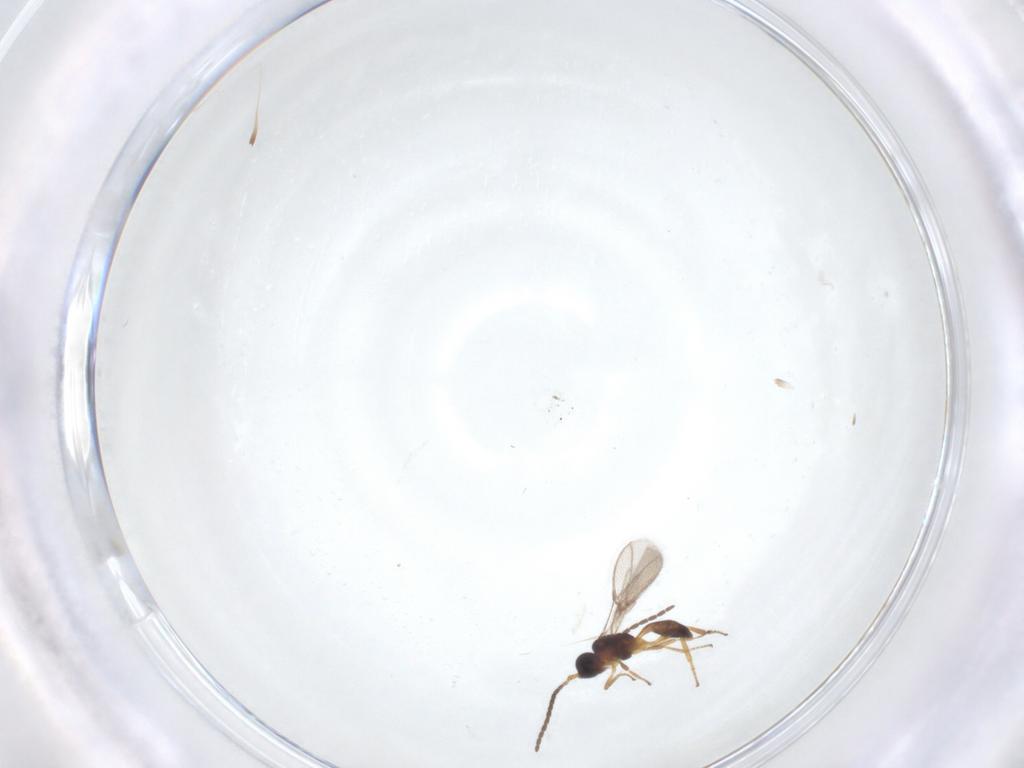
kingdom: Animalia
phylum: Arthropoda
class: Insecta
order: Hymenoptera
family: Braconidae
